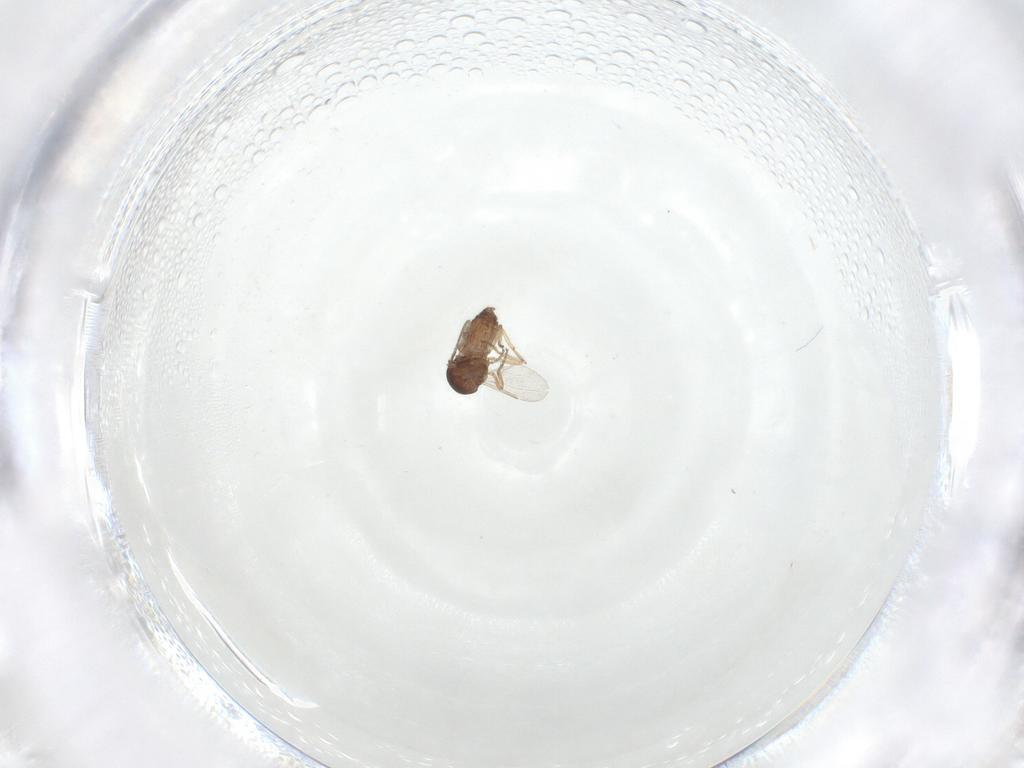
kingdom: Animalia
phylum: Arthropoda
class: Insecta
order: Diptera
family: Ceratopogonidae
